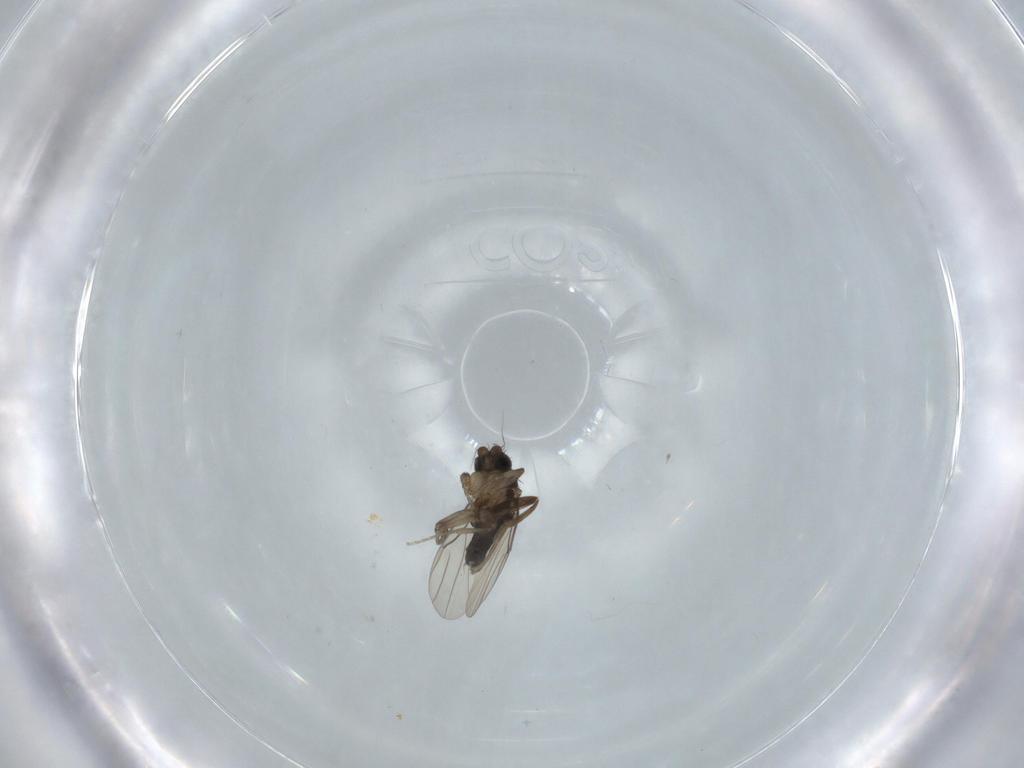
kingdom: Animalia
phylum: Arthropoda
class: Insecta
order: Diptera
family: Phoridae
